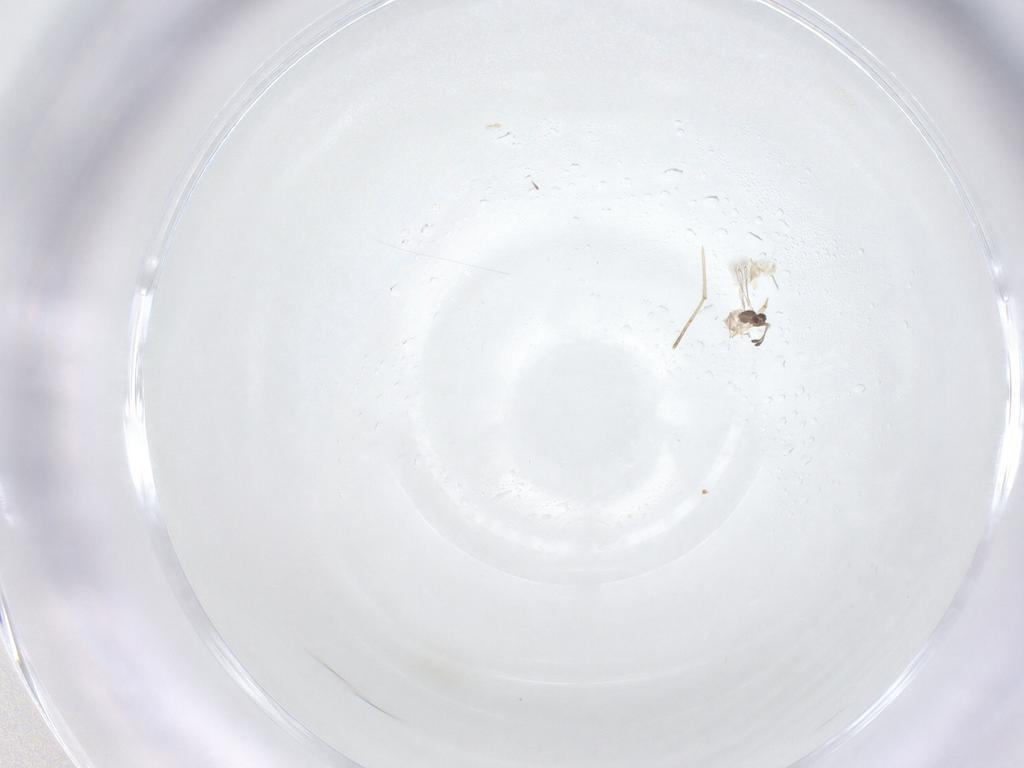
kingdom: Animalia
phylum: Arthropoda
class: Insecta
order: Hymenoptera
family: Mymaridae
